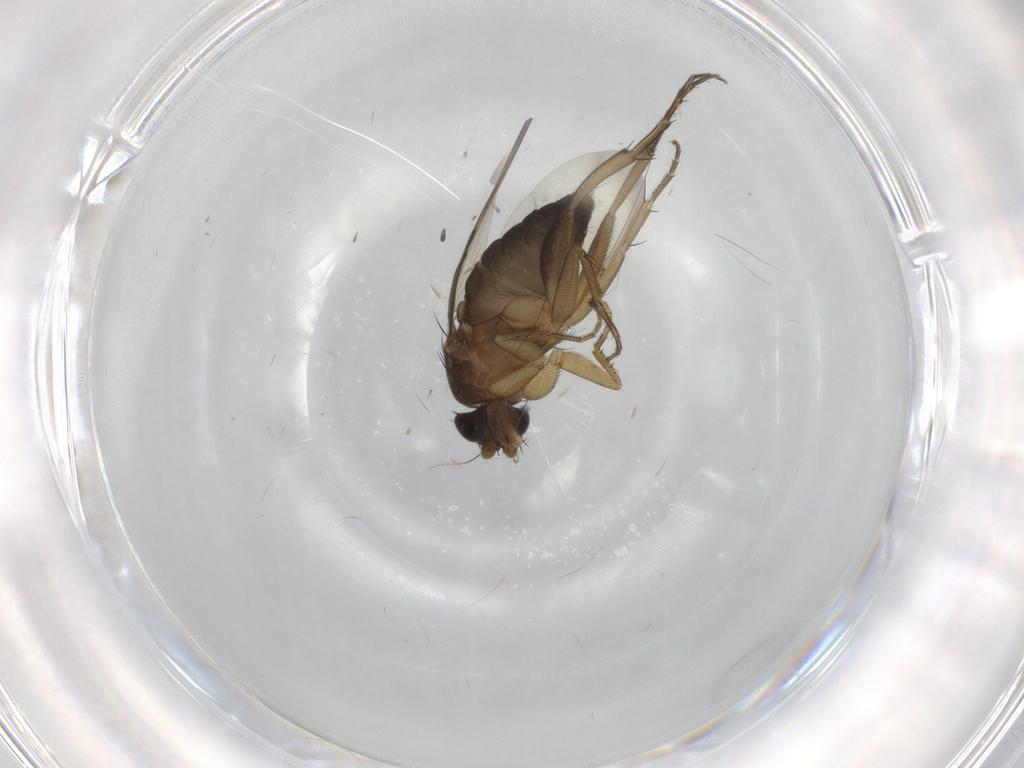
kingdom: Animalia
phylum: Arthropoda
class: Insecta
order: Diptera
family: Phoridae
